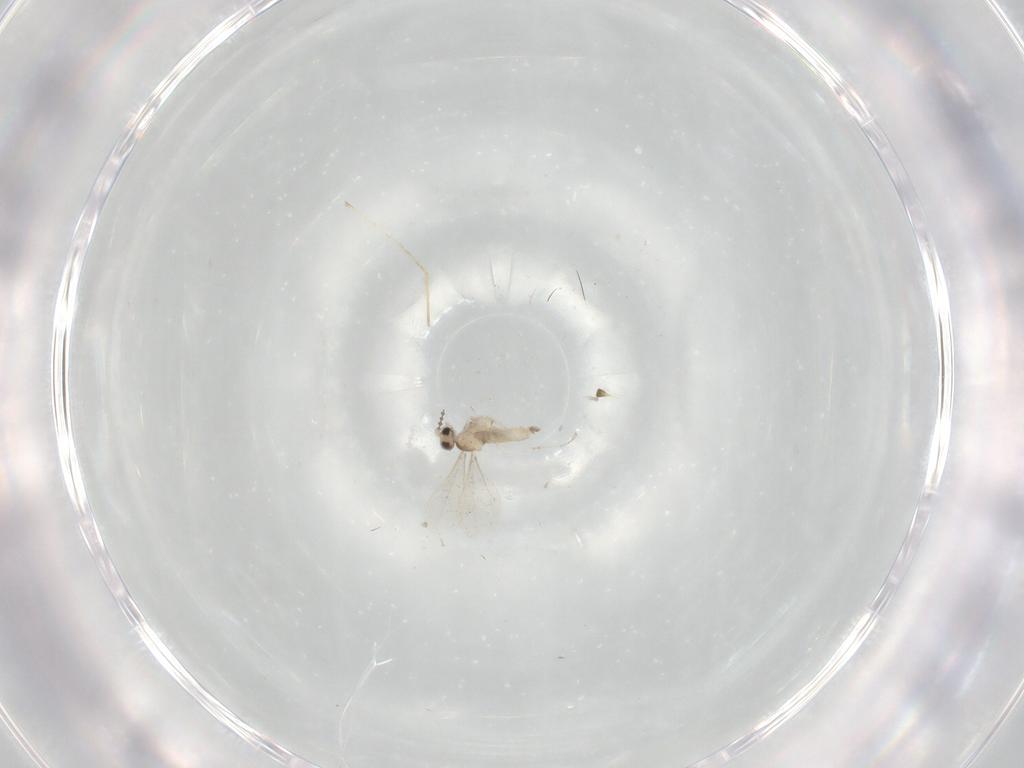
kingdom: Animalia
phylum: Arthropoda
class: Insecta
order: Diptera
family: Cecidomyiidae
